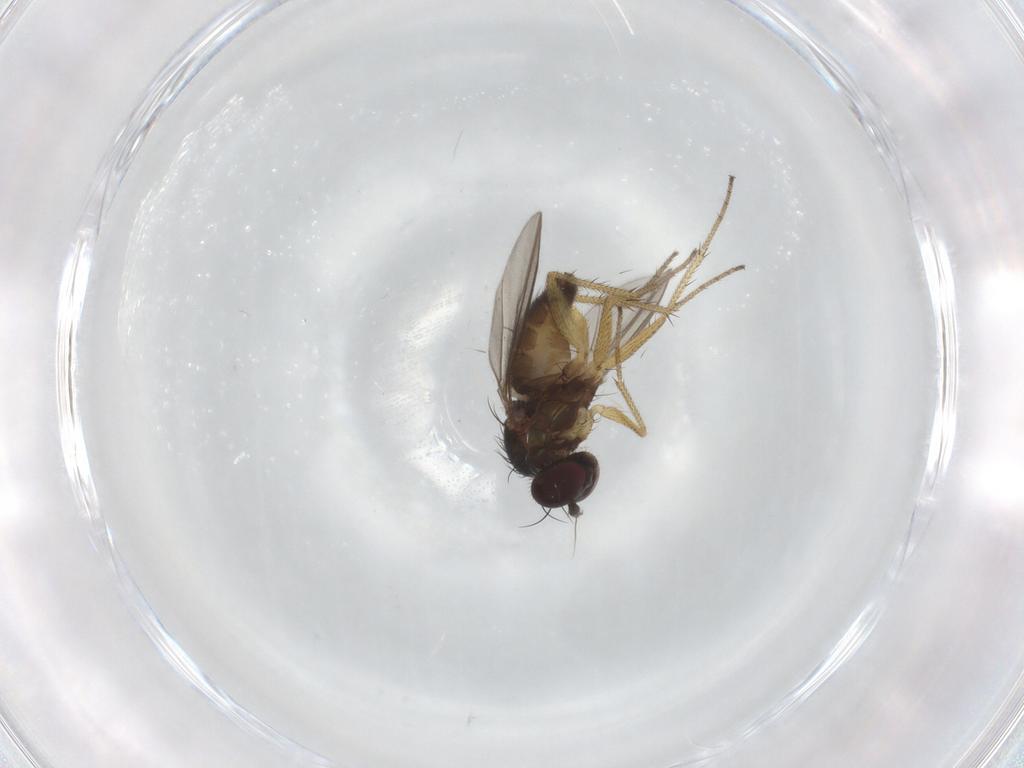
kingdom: Animalia
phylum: Arthropoda
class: Insecta
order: Diptera
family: Dolichopodidae
